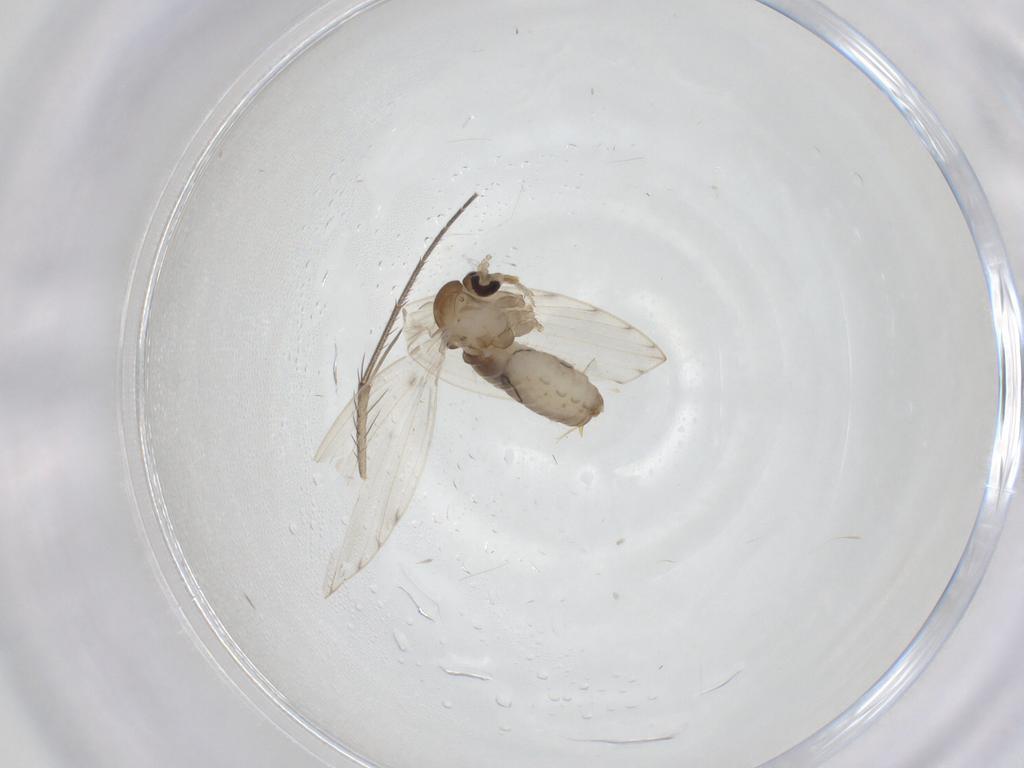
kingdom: Animalia
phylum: Arthropoda
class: Insecta
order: Diptera
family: Psychodidae
